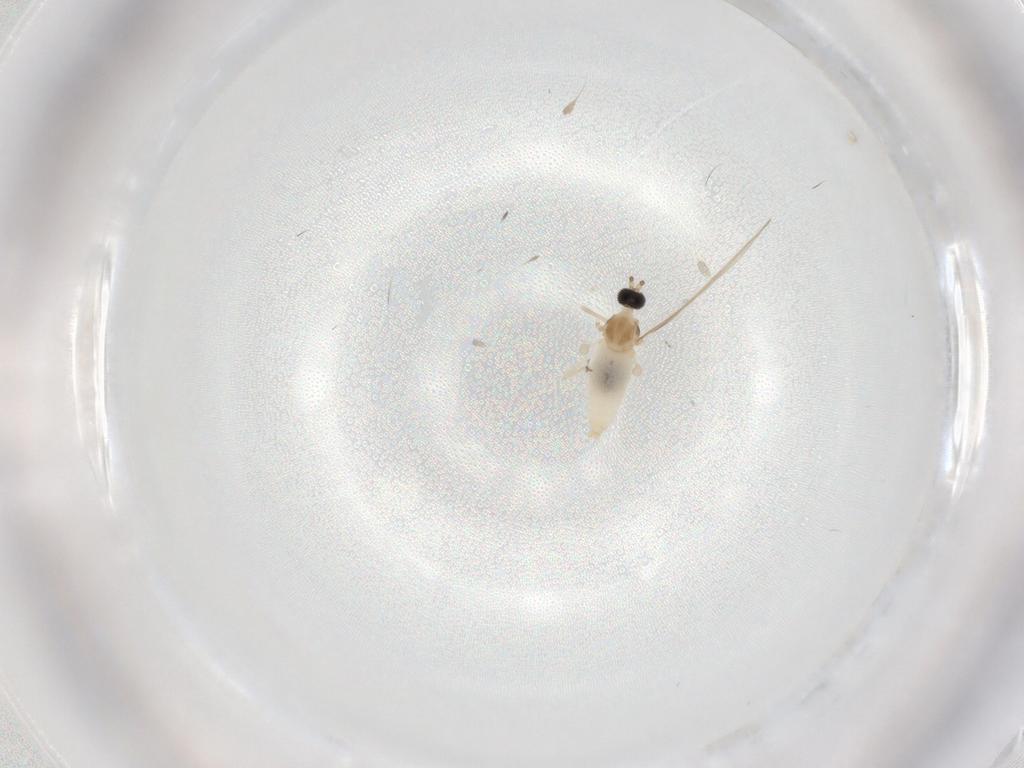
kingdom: Animalia
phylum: Arthropoda
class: Insecta
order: Diptera
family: Cecidomyiidae
